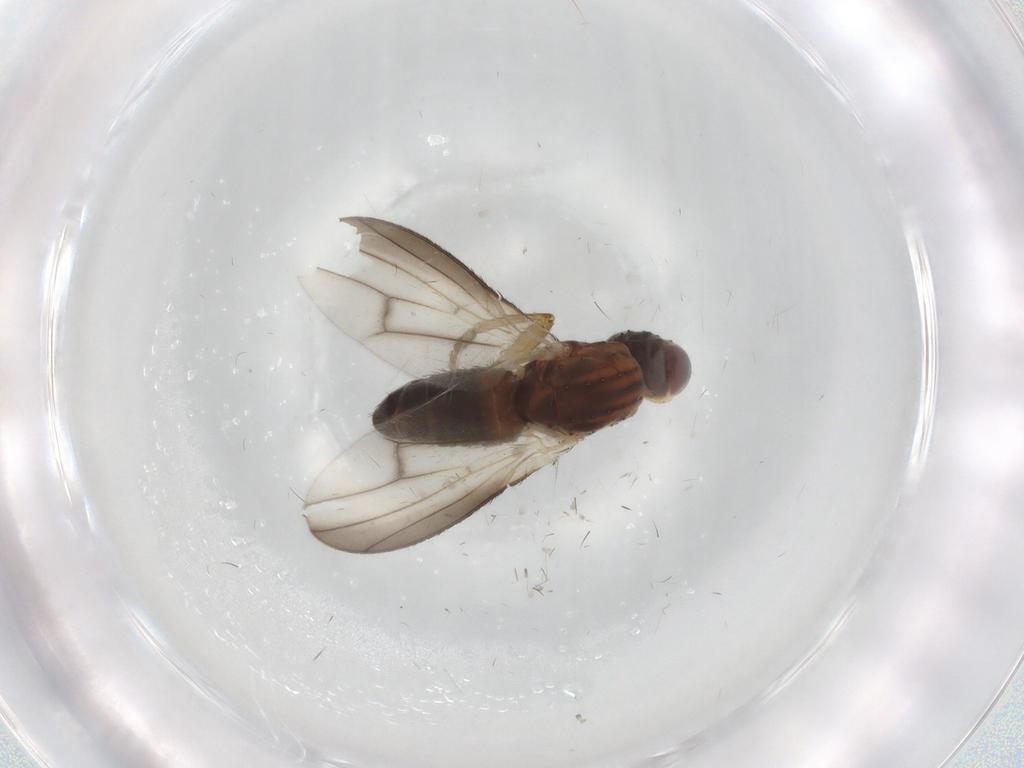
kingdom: Animalia
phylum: Arthropoda
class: Insecta
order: Diptera
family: Heleomyzidae
